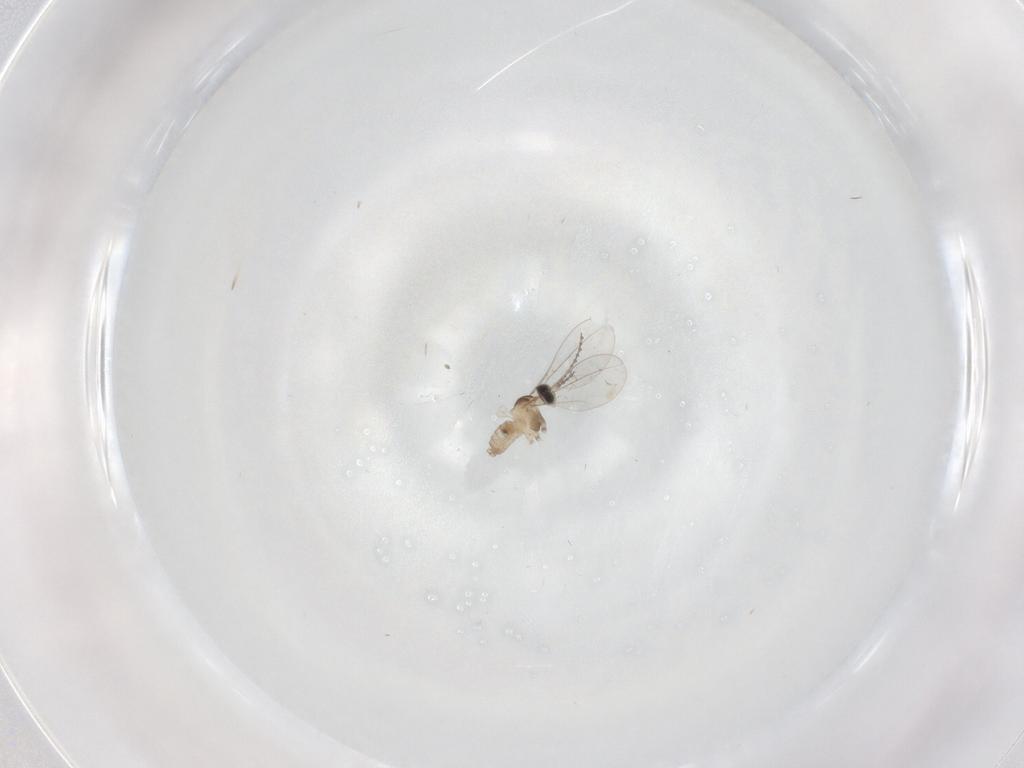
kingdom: Animalia
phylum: Arthropoda
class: Insecta
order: Diptera
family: Cecidomyiidae
